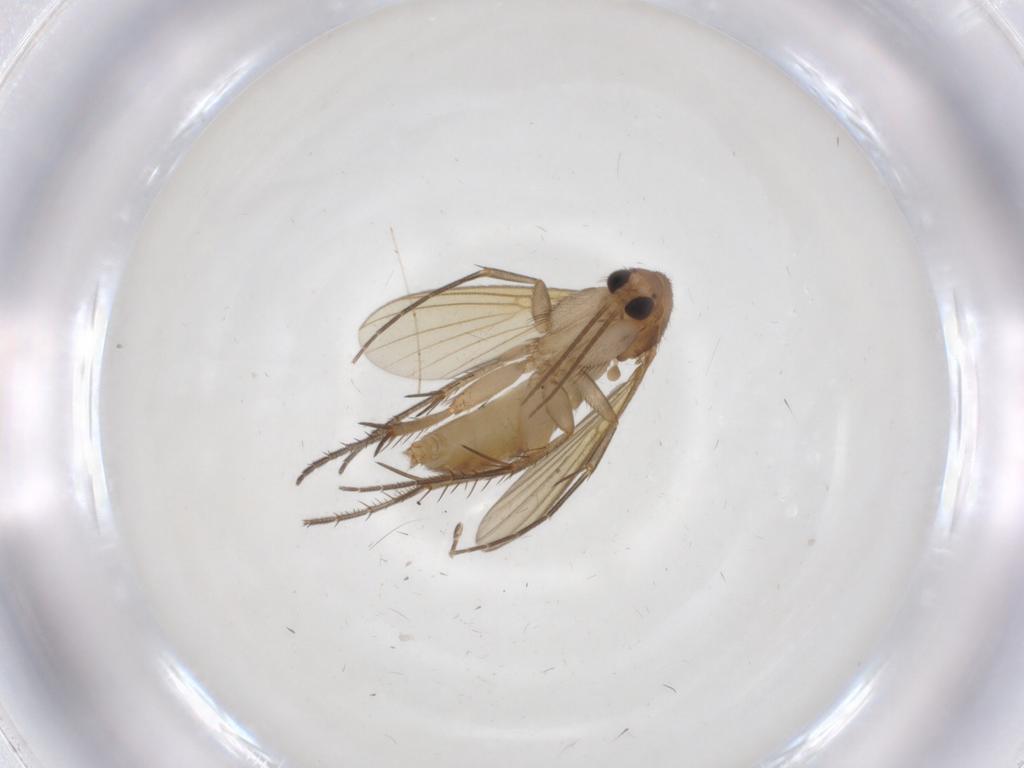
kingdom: Animalia
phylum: Arthropoda
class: Insecta
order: Diptera
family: Mycetophilidae
